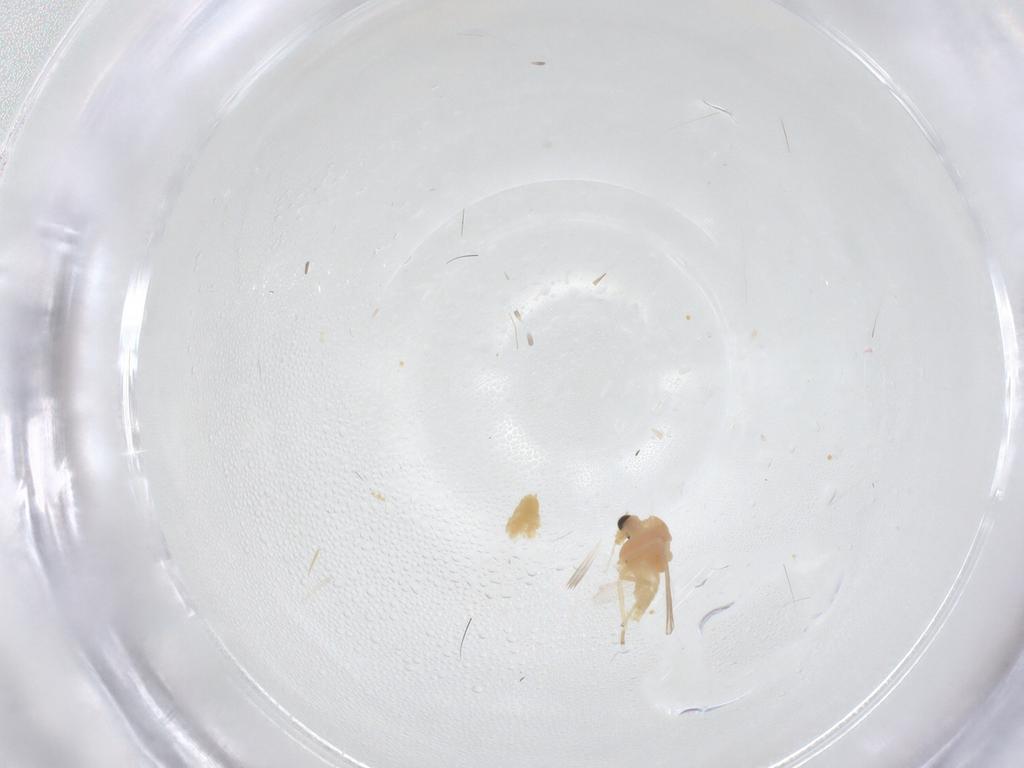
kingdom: Animalia
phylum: Arthropoda
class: Insecta
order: Diptera
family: Chironomidae
